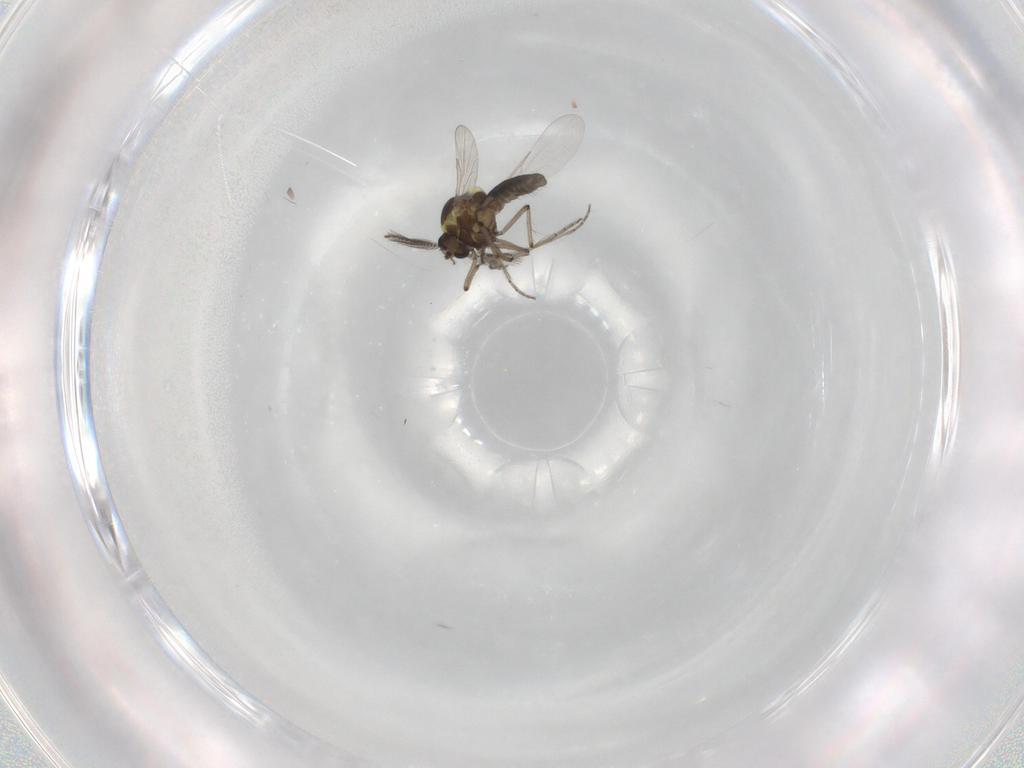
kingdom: Animalia
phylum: Arthropoda
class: Insecta
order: Diptera
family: Ceratopogonidae
